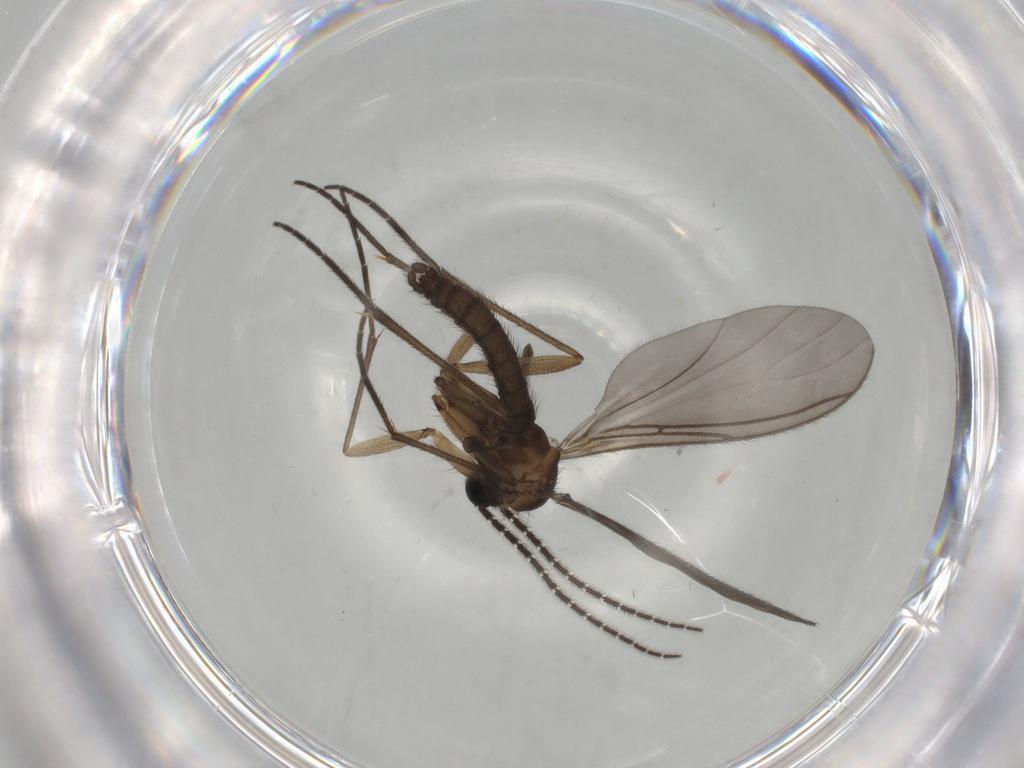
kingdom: Animalia
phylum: Arthropoda
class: Insecta
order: Diptera
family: Sciaridae
